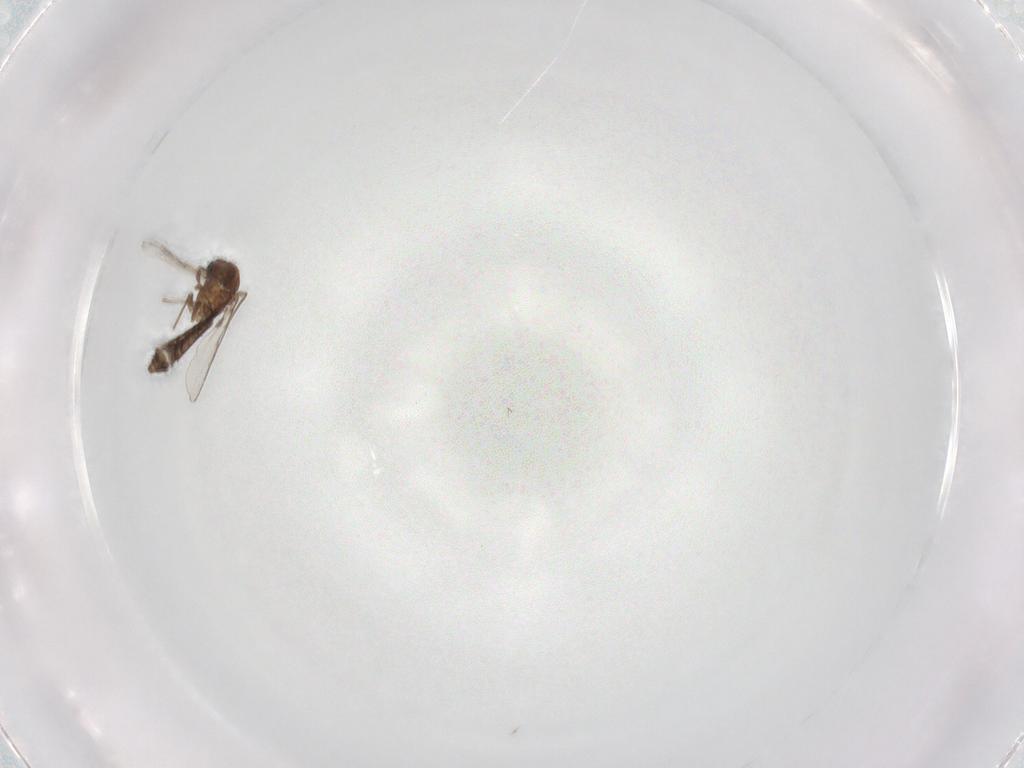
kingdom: Animalia
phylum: Arthropoda
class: Insecta
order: Diptera
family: Chironomidae
